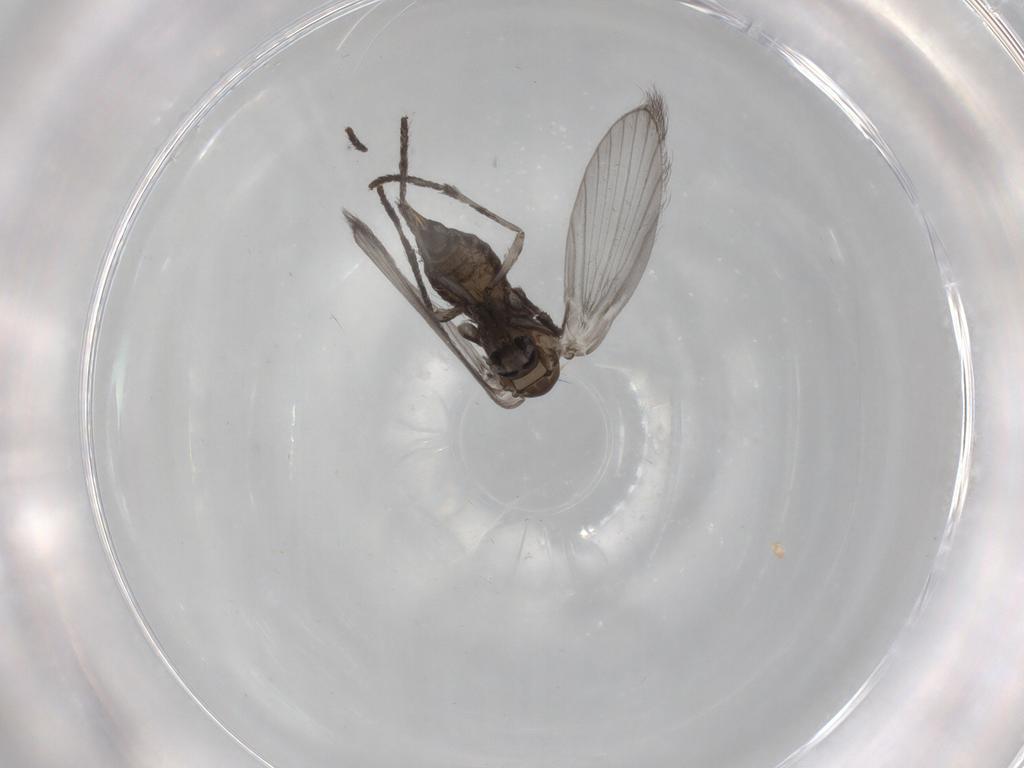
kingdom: Animalia
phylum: Arthropoda
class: Insecta
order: Diptera
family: Psychodidae
